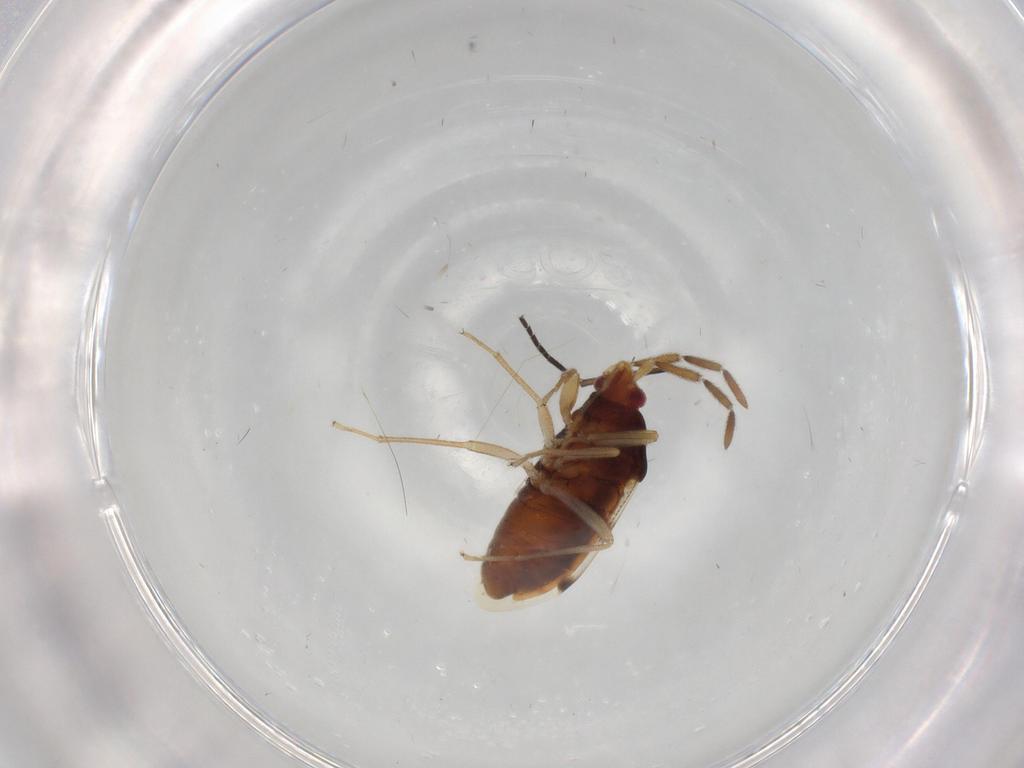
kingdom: Animalia
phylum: Arthropoda
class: Insecta
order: Hemiptera
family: Rhyparochromidae
